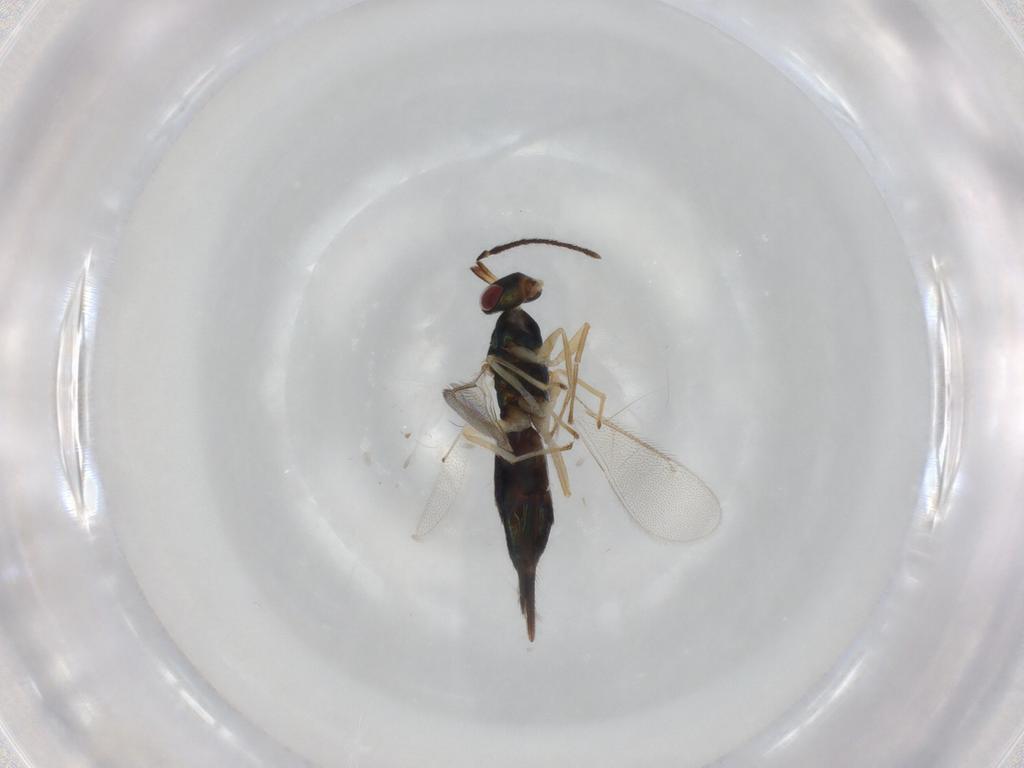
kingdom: Animalia
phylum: Arthropoda
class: Insecta
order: Hymenoptera
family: Eulophidae
